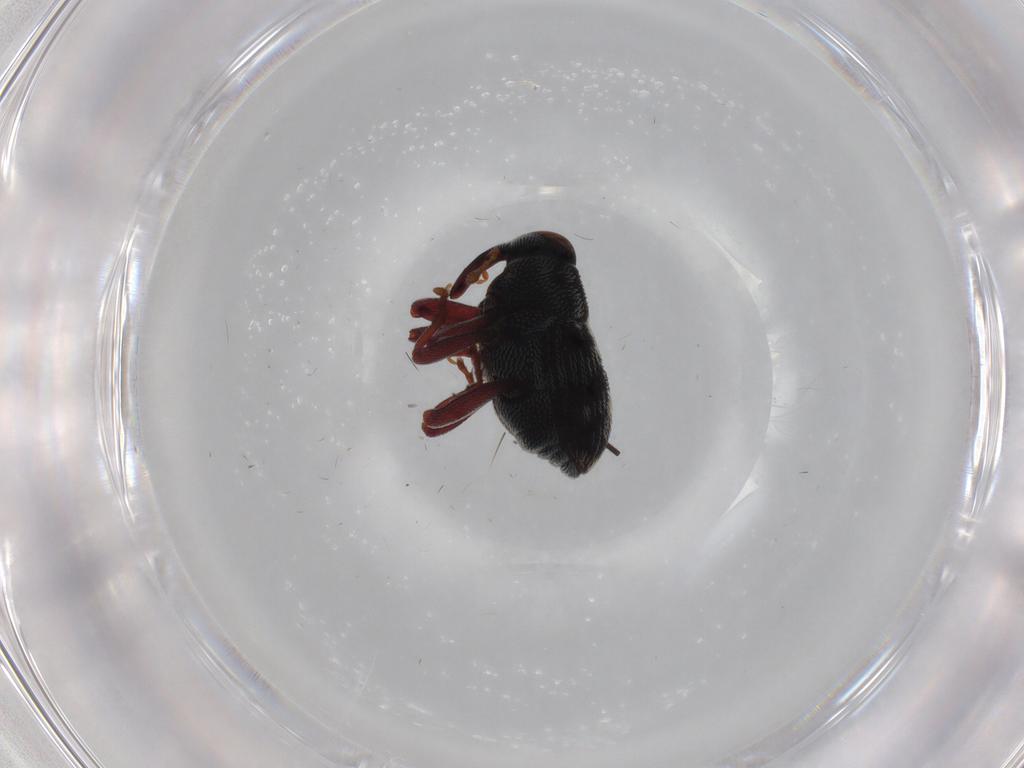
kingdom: Animalia
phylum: Arthropoda
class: Insecta
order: Coleoptera
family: Curculionidae
